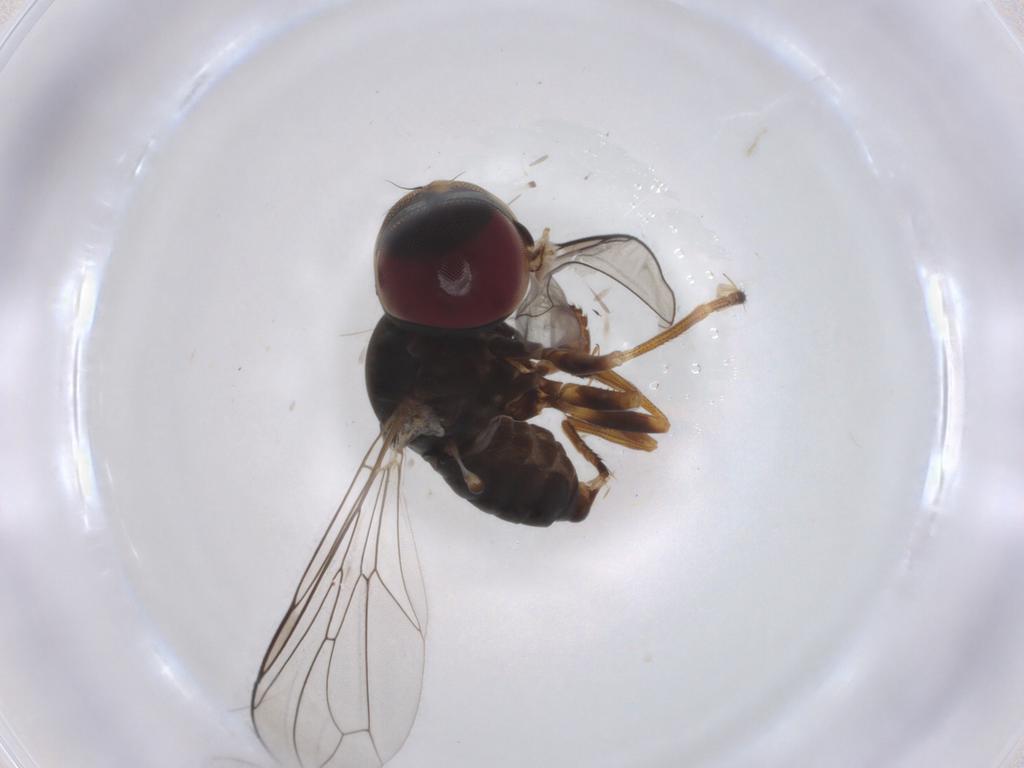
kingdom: Animalia
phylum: Arthropoda
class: Insecta
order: Diptera
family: Pipunculidae
